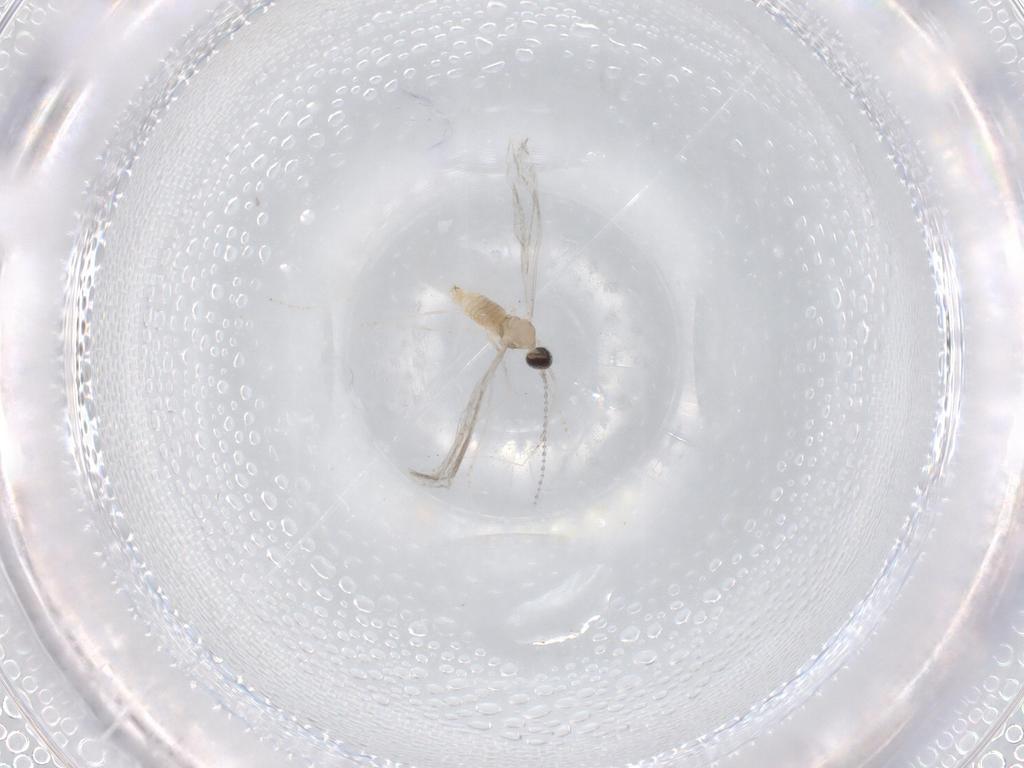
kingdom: Animalia
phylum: Arthropoda
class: Insecta
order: Diptera
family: Cecidomyiidae
